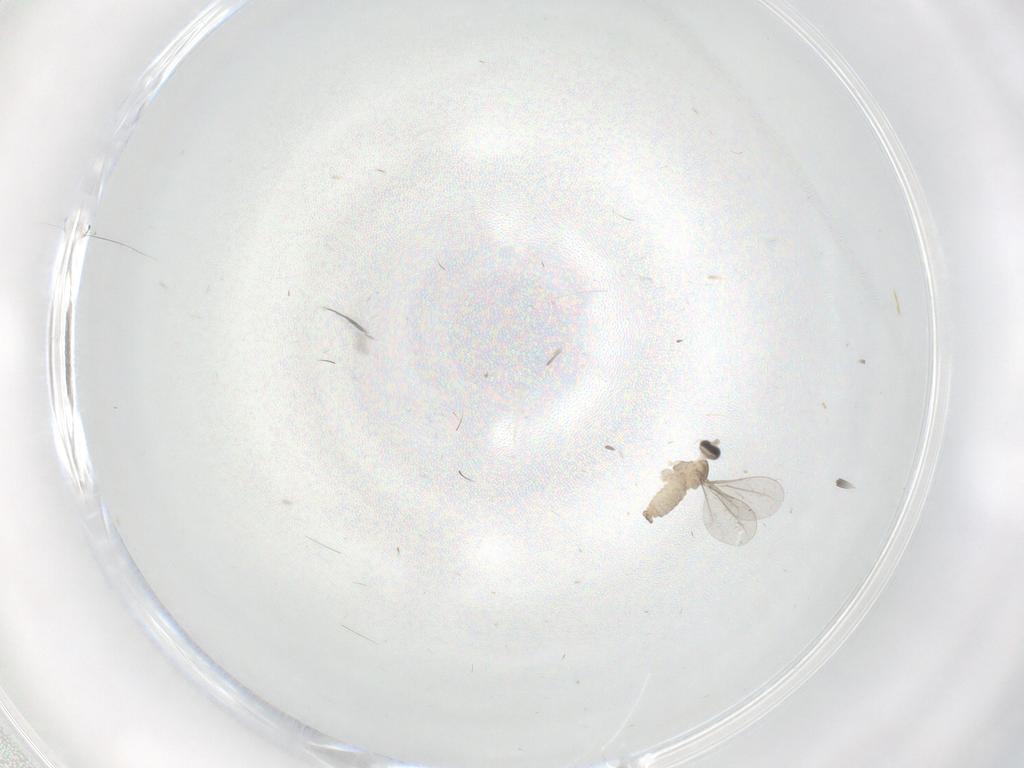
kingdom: Animalia
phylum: Arthropoda
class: Insecta
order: Diptera
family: Cecidomyiidae
